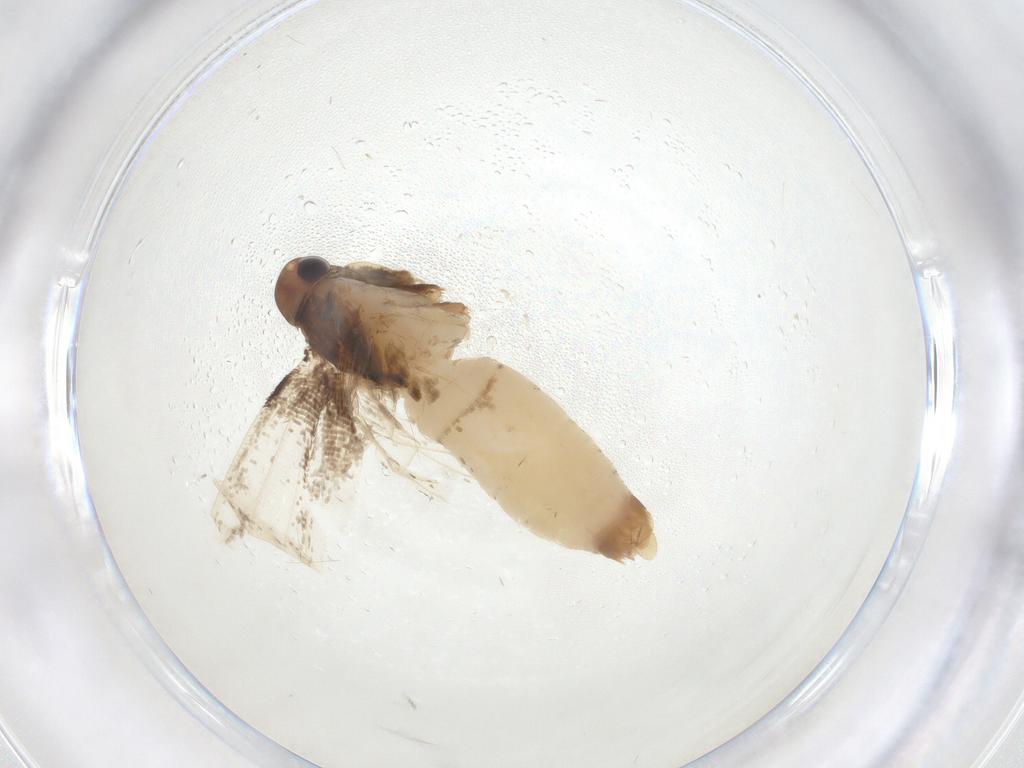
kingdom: Animalia
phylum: Arthropoda
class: Insecta
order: Lepidoptera
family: Gelechiidae
